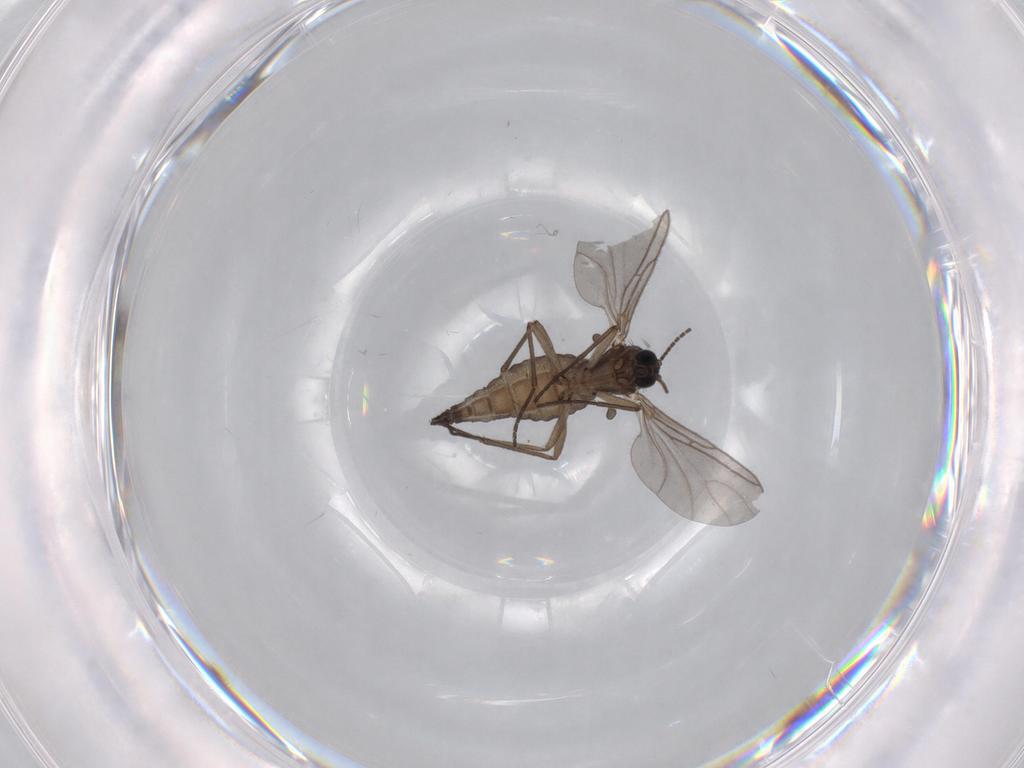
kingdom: Animalia
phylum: Arthropoda
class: Insecta
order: Diptera
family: Sciaridae
